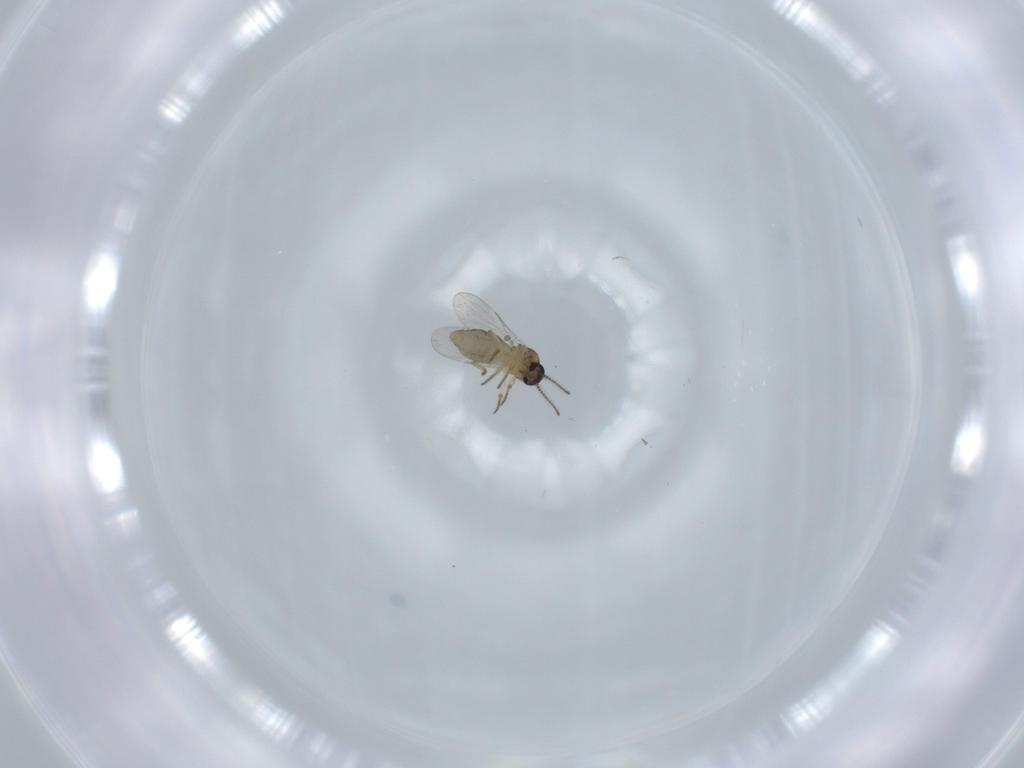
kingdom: Animalia
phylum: Arthropoda
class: Insecta
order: Diptera
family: Ceratopogonidae
